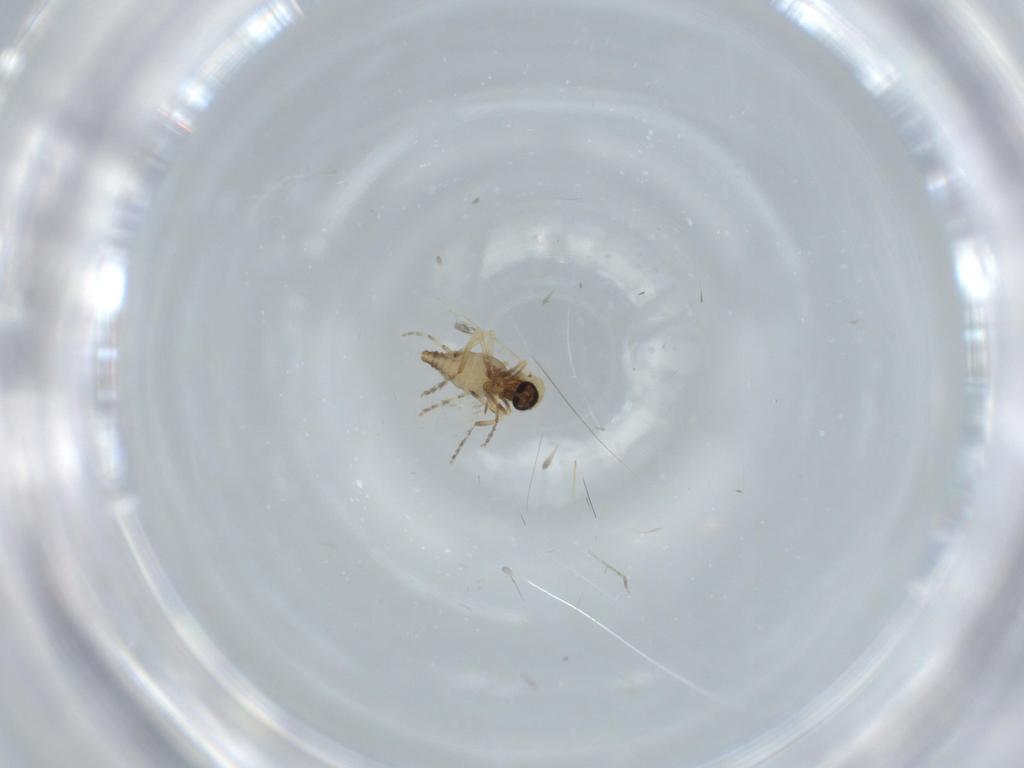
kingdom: Animalia
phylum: Arthropoda
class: Insecta
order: Diptera
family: Ceratopogonidae
